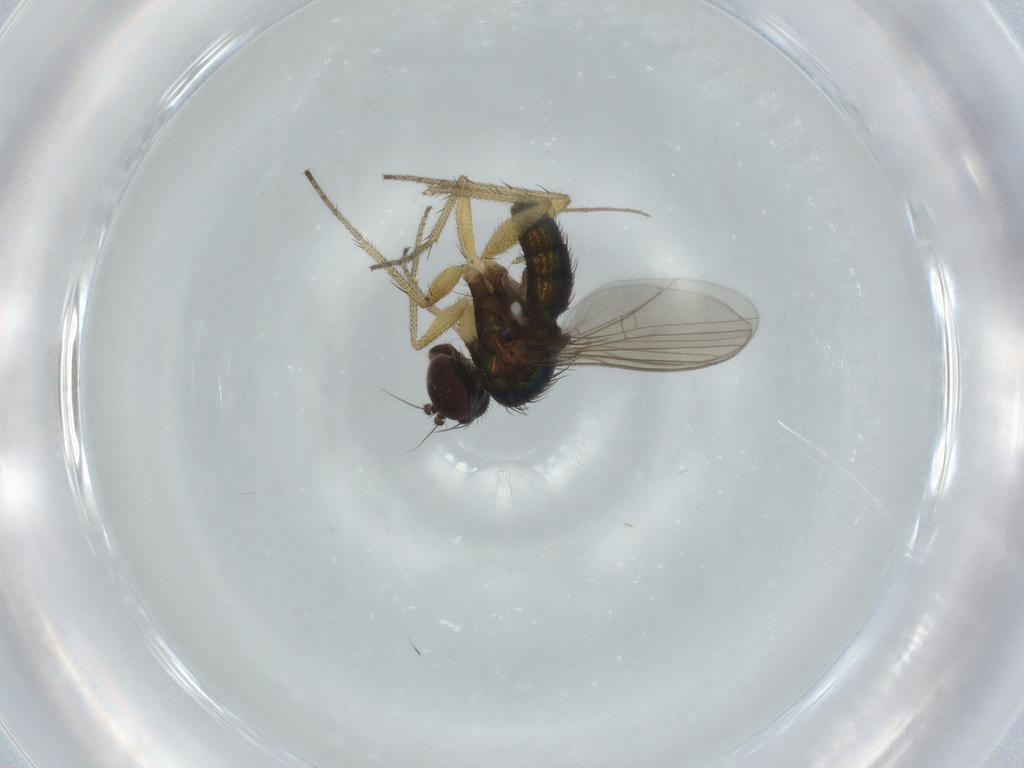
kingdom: Animalia
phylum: Arthropoda
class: Insecta
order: Diptera
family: Dolichopodidae
